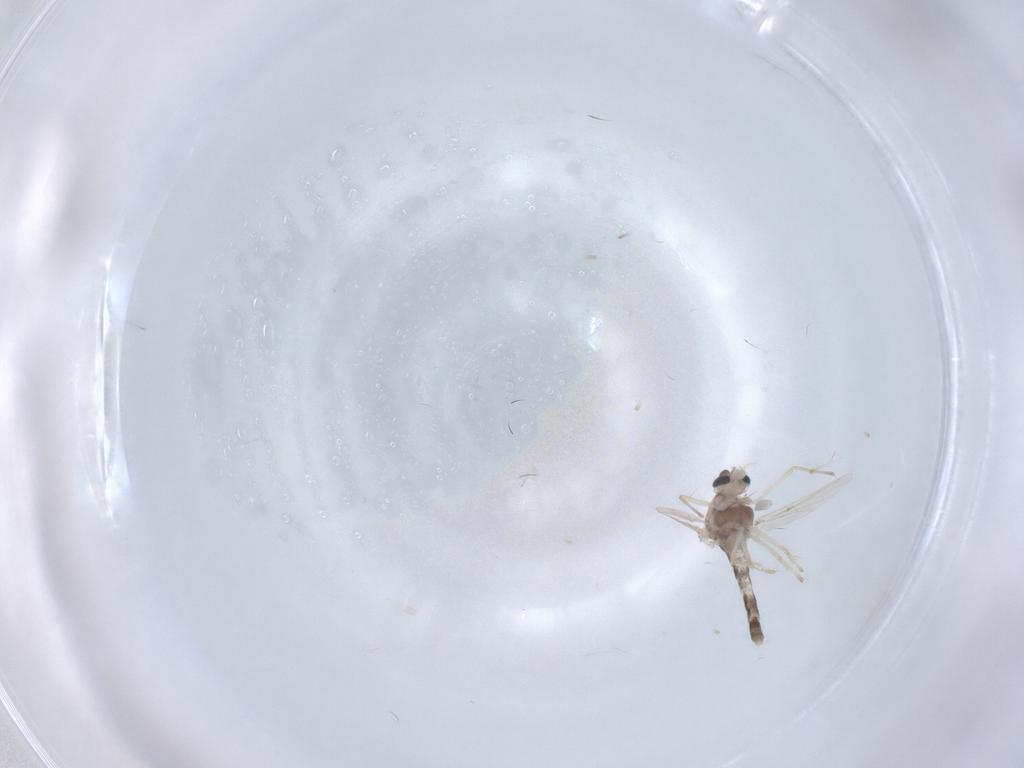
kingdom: Animalia
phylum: Arthropoda
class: Insecta
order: Diptera
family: Chironomidae
